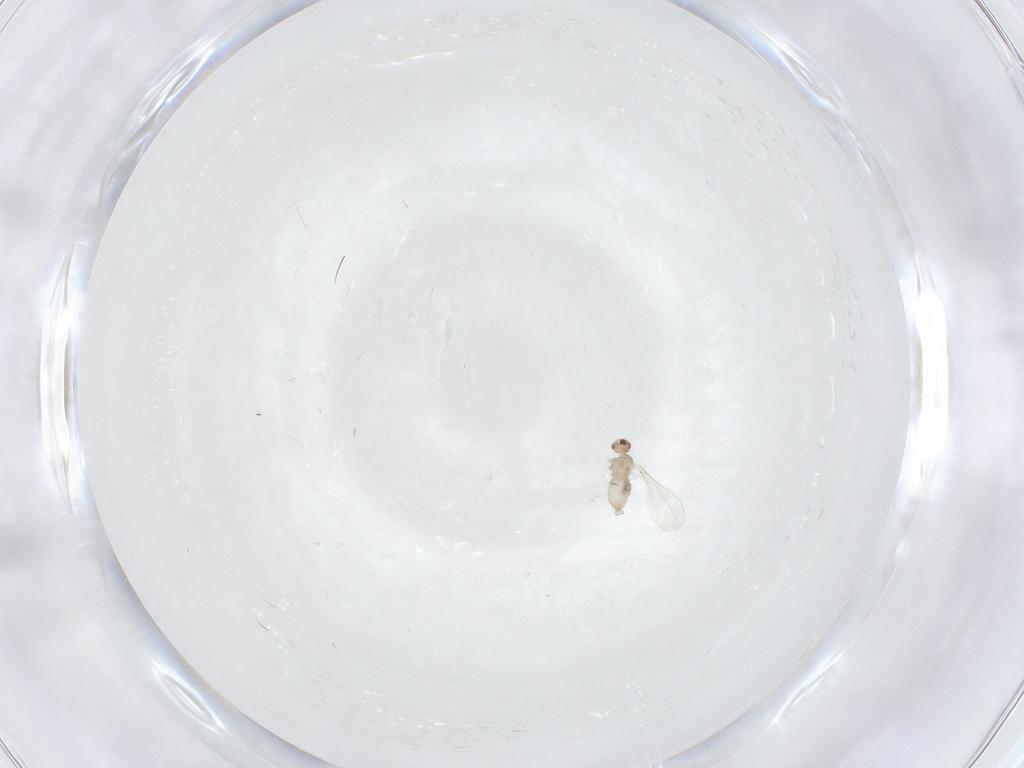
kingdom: Animalia
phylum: Arthropoda
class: Insecta
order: Diptera
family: Cecidomyiidae
